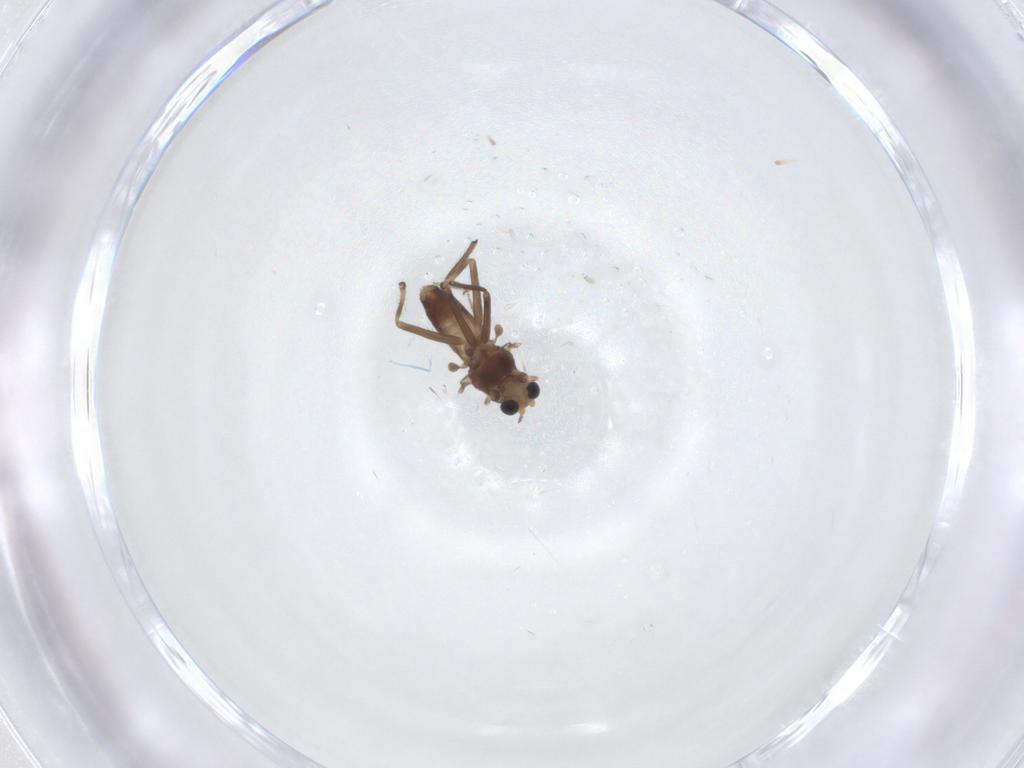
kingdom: Animalia
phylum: Arthropoda
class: Insecta
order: Diptera
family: Chironomidae
